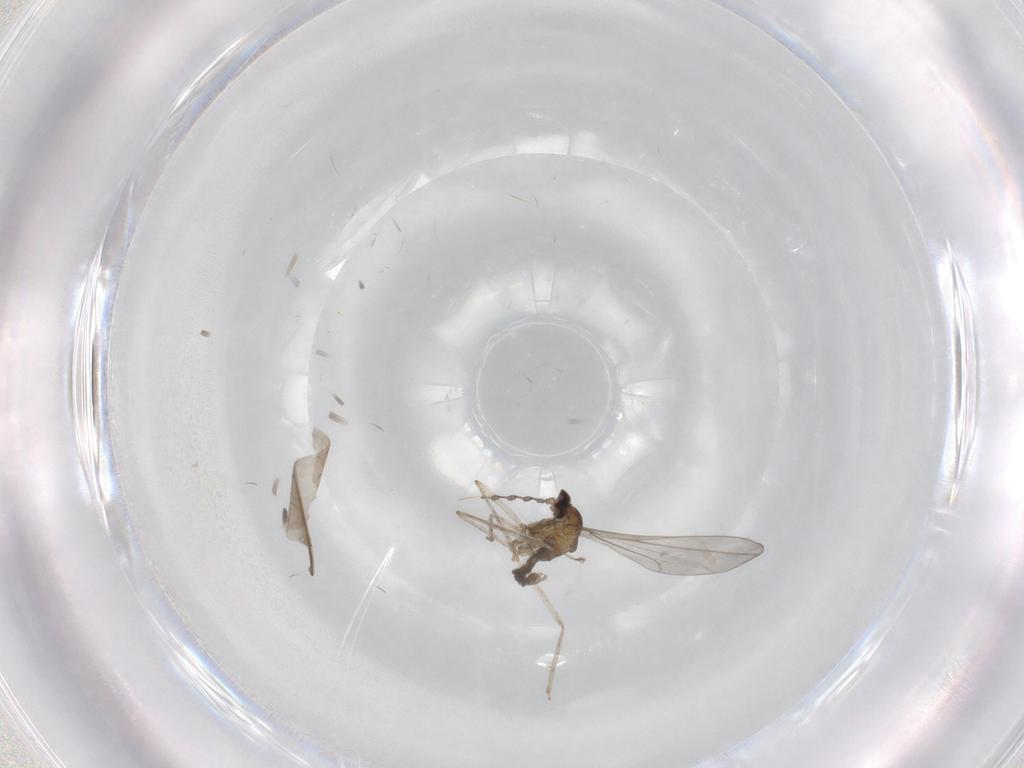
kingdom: Animalia
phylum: Arthropoda
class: Insecta
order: Diptera
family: Cecidomyiidae
